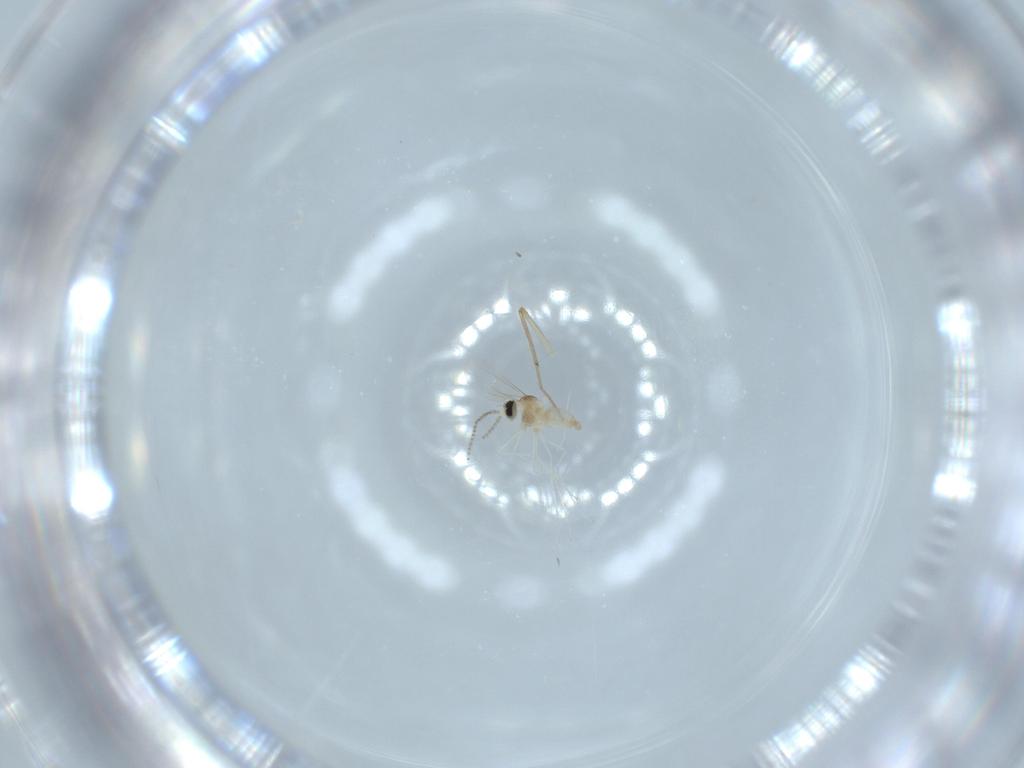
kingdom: Animalia
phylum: Arthropoda
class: Insecta
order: Diptera
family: Cecidomyiidae
